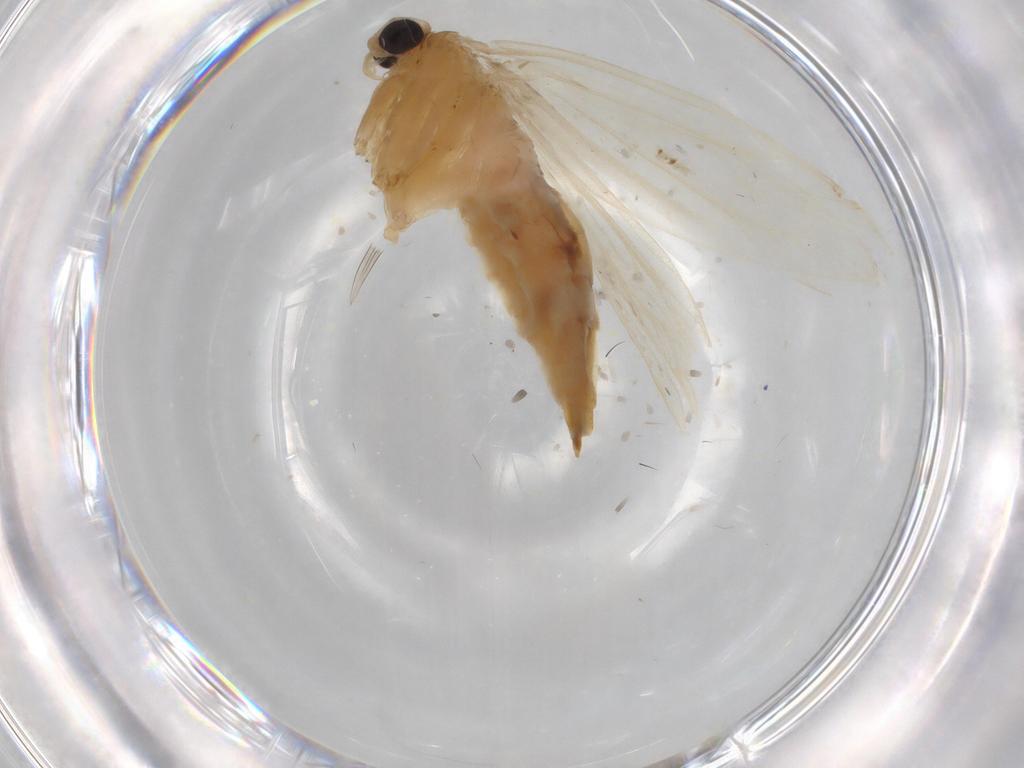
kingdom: Animalia
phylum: Arthropoda
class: Insecta
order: Lepidoptera
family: Tineidae
